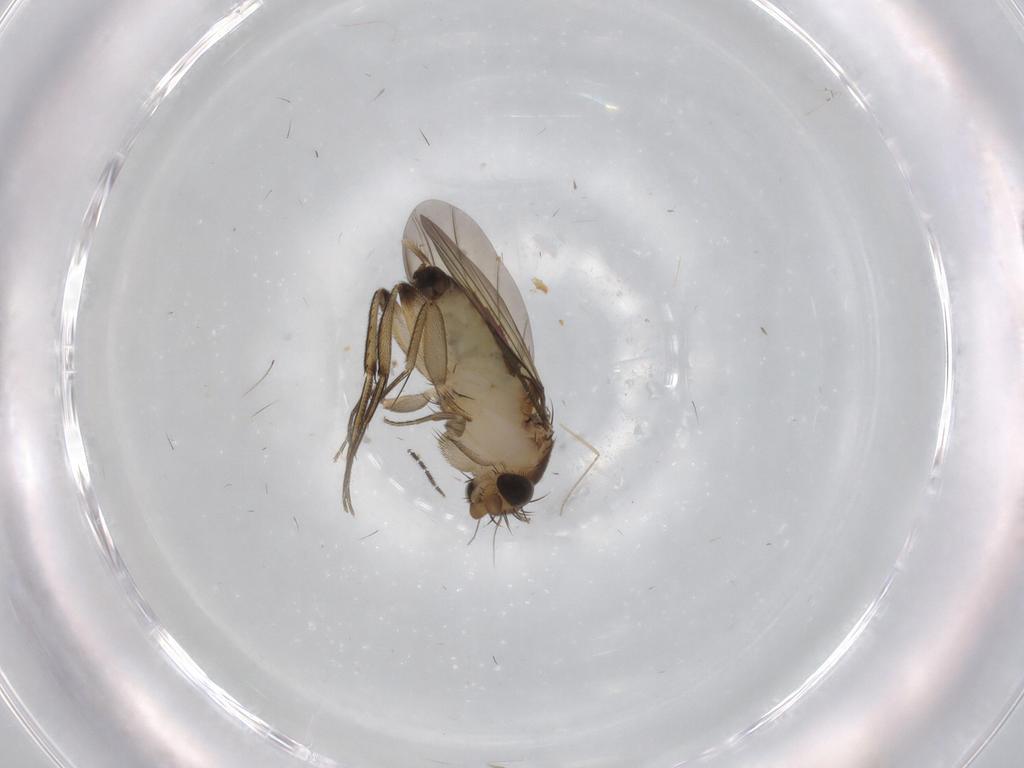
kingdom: Animalia
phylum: Arthropoda
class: Insecta
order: Diptera
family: Phoridae
